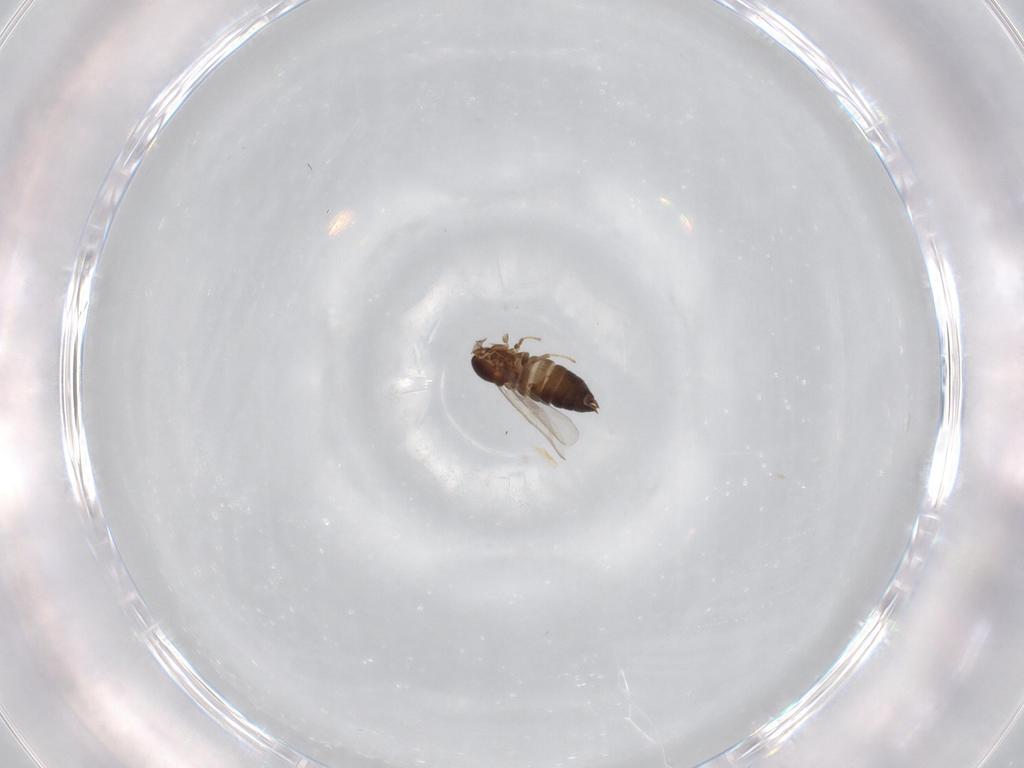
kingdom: Animalia
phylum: Arthropoda
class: Insecta
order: Diptera
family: Scatopsidae
